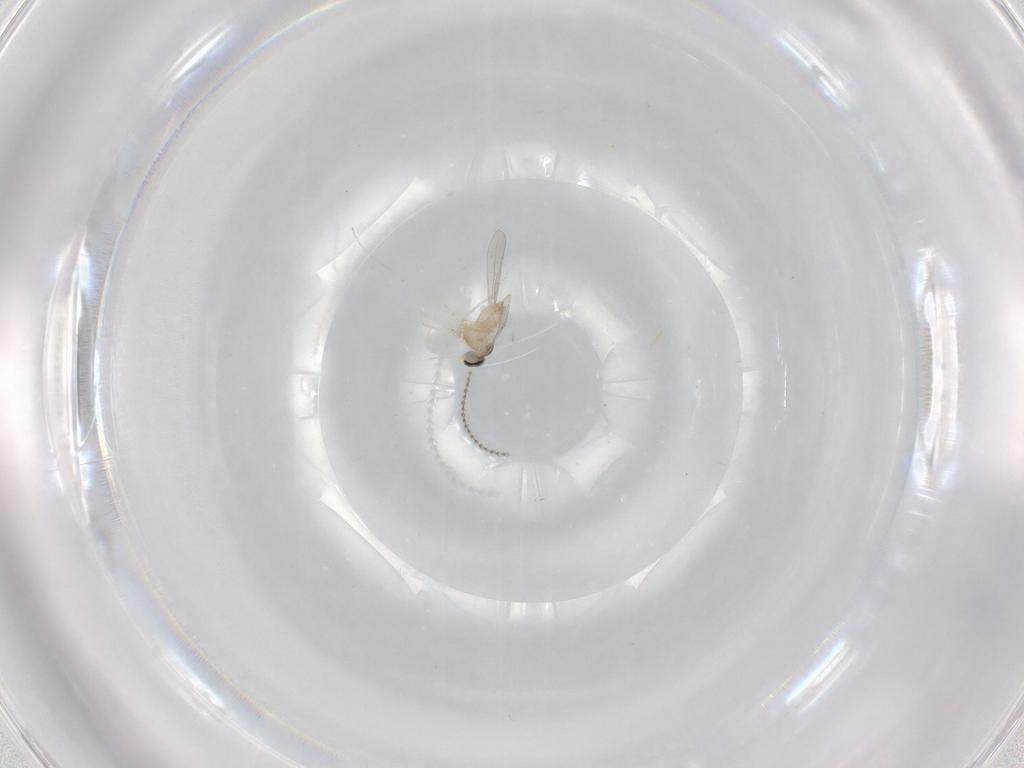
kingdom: Animalia
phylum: Arthropoda
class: Insecta
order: Diptera
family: Cecidomyiidae
